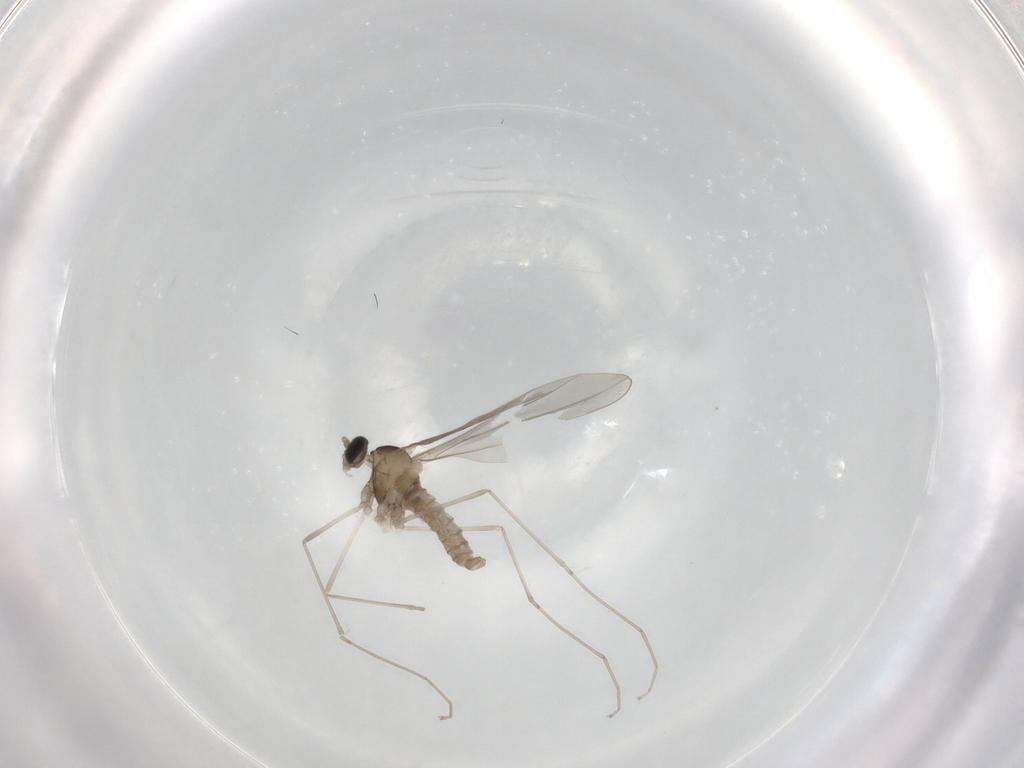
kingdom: Animalia
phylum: Arthropoda
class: Insecta
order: Diptera
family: Cecidomyiidae
